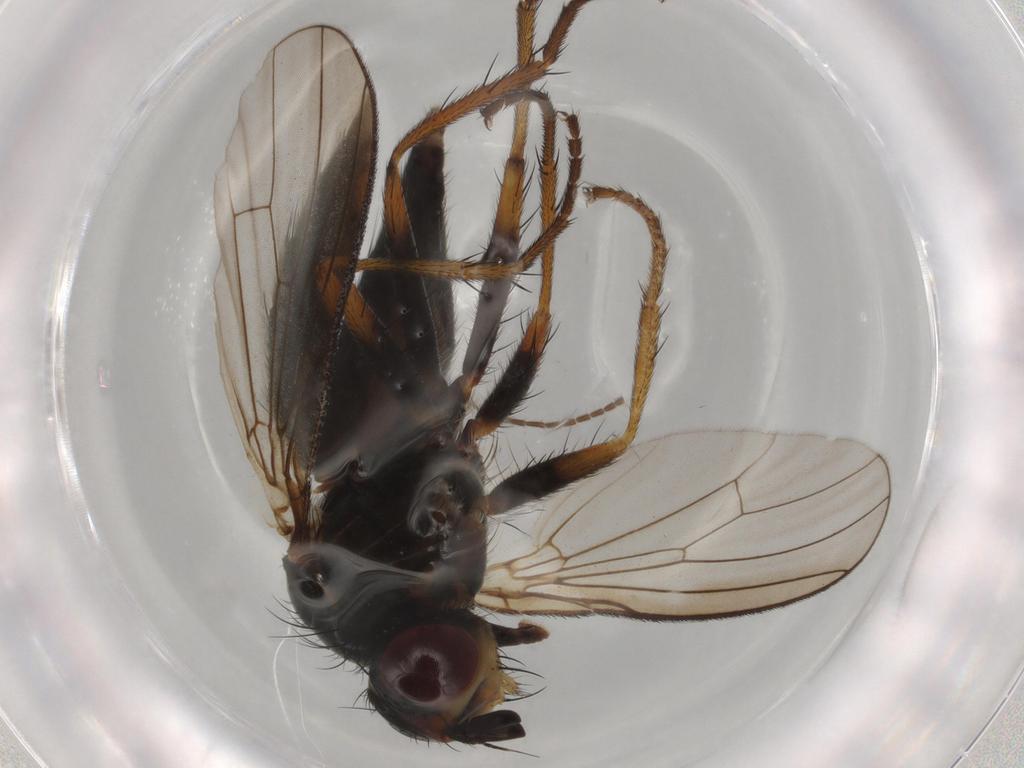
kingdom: Animalia
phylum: Arthropoda
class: Insecta
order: Diptera
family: Scathophagidae
